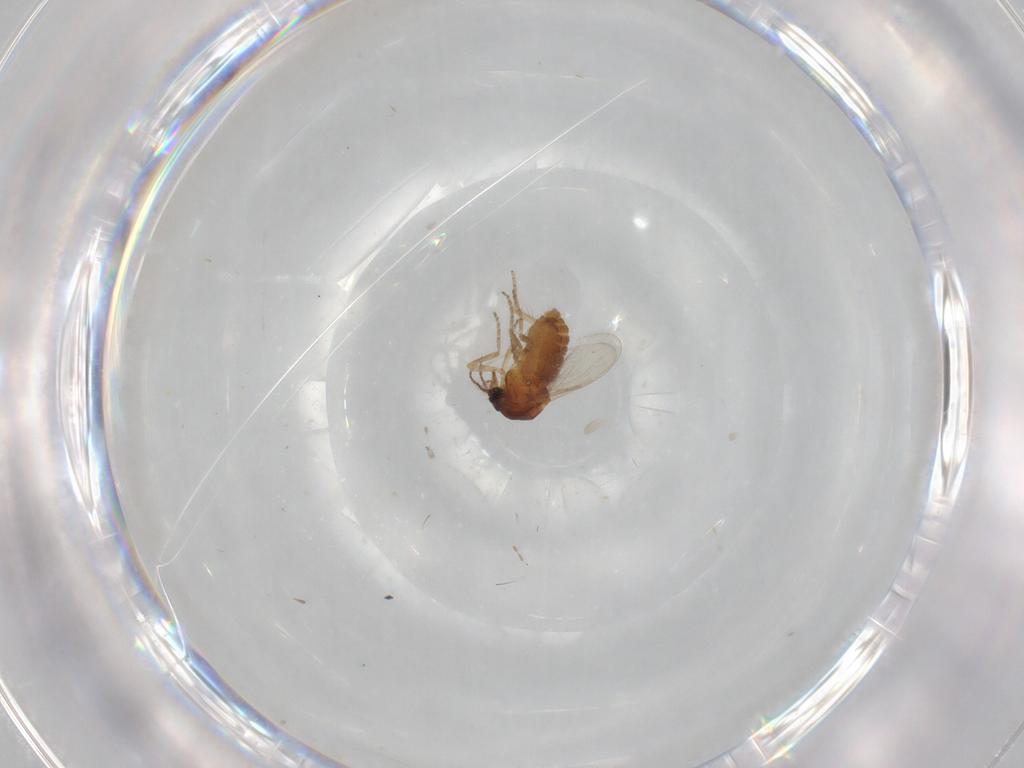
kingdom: Animalia
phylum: Arthropoda
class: Insecta
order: Diptera
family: Ceratopogonidae
